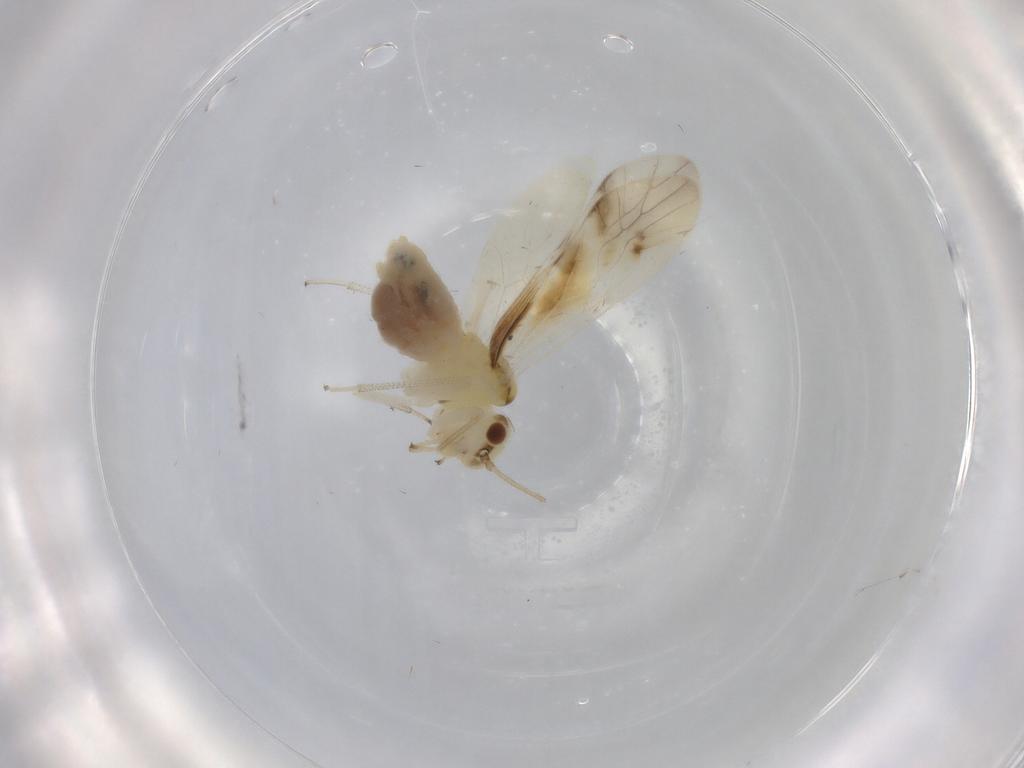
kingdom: Animalia
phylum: Arthropoda
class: Insecta
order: Psocodea
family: Caeciliusidae
